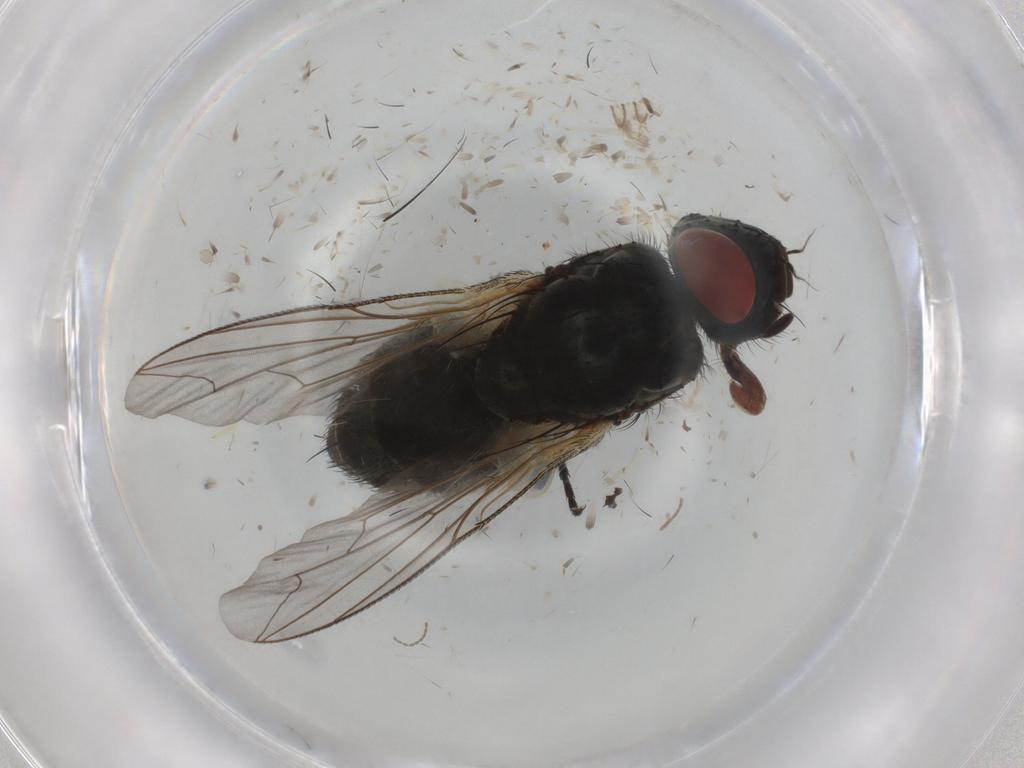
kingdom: Animalia
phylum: Arthropoda
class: Insecta
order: Diptera
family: Sarcophagidae
